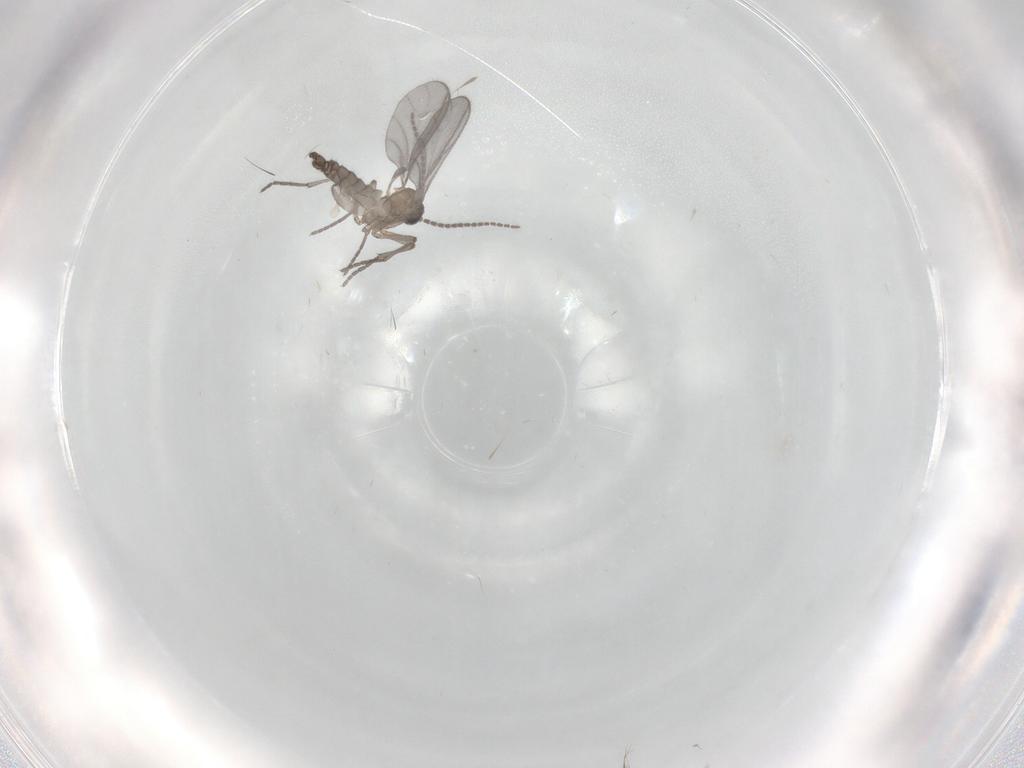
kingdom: Animalia
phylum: Arthropoda
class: Insecta
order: Diptera
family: Sciaridae
